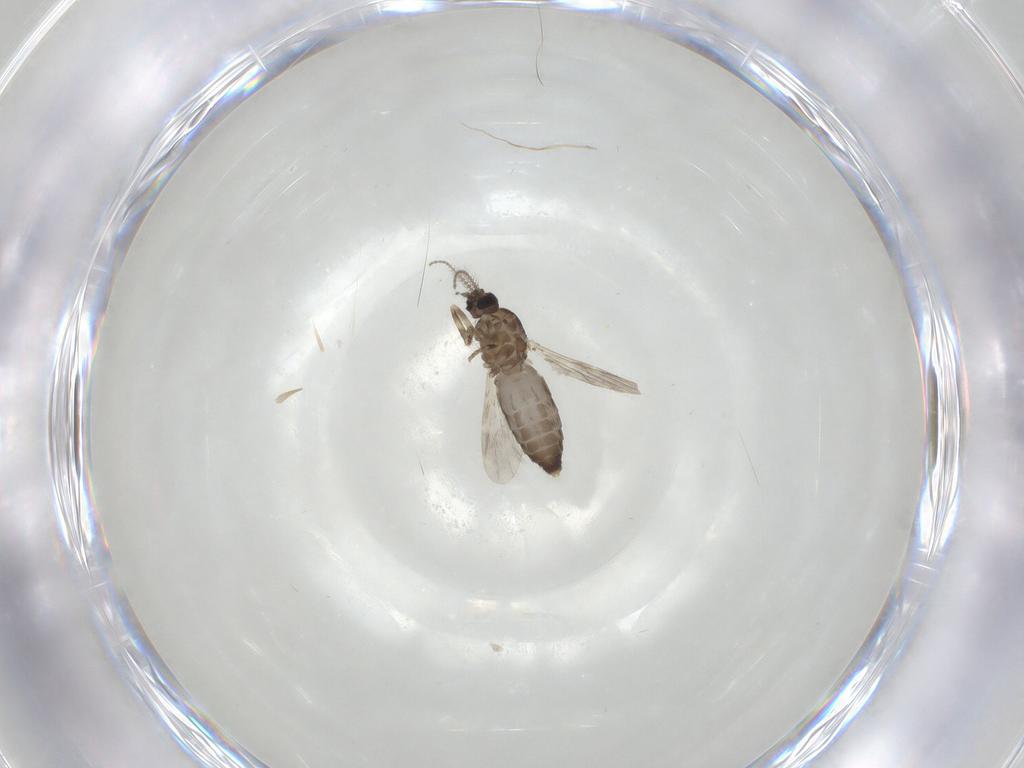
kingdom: Animalia
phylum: Arthropoda
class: Insecta
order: Diptera
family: Ceratopogonidae
